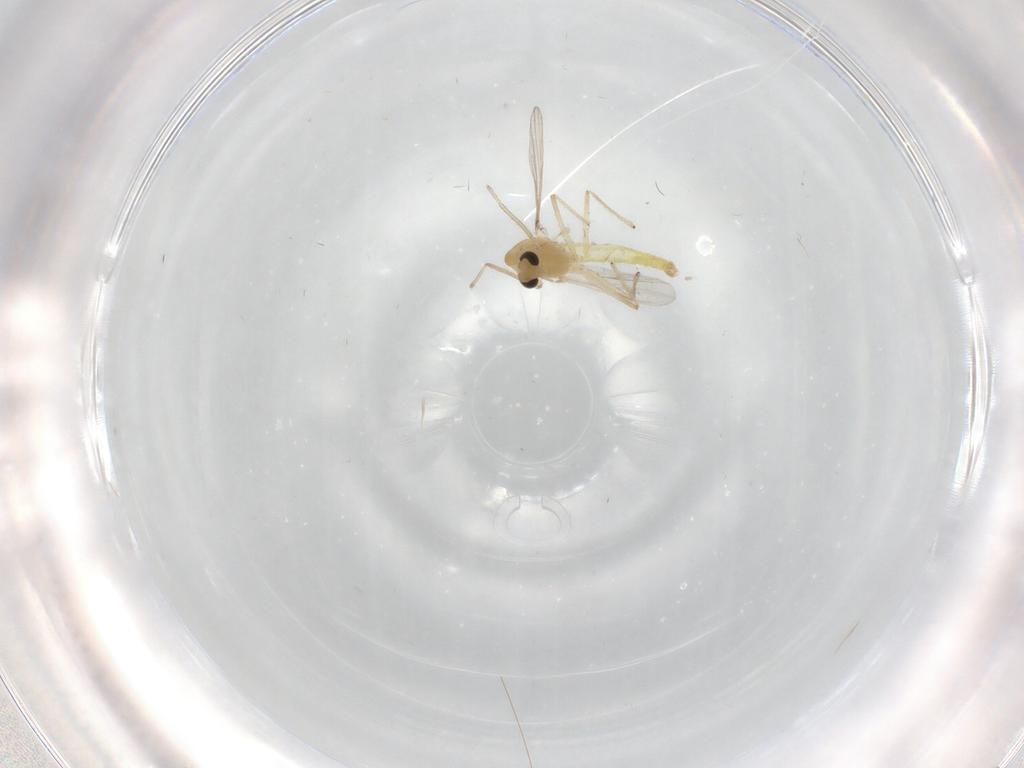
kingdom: Animalia
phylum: Arthropoda
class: Insecta
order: Diptera
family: Chironomidae
